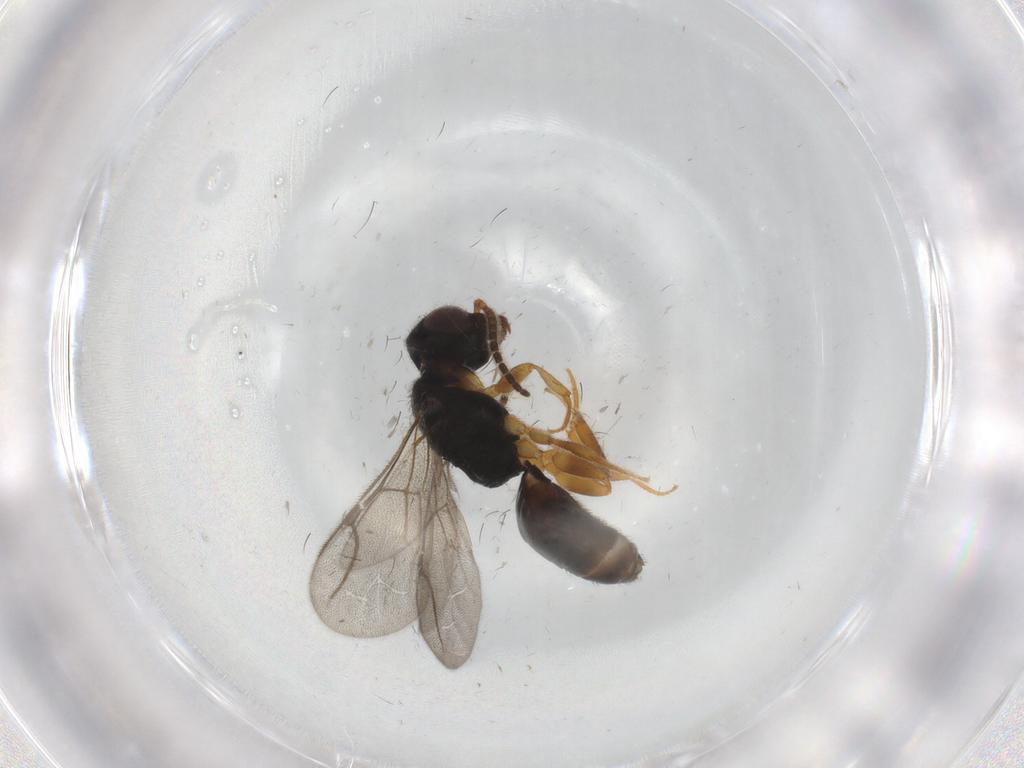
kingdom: Animalia
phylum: Arthropoda
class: Insecta
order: Hymenoptera
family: Bethylidae
